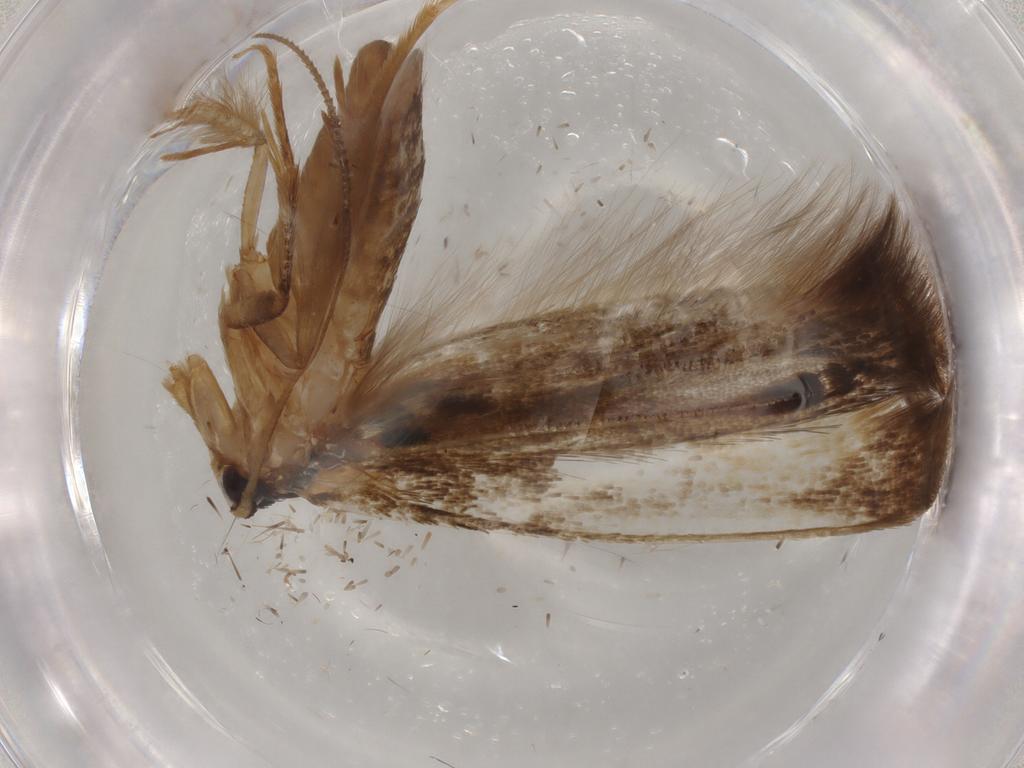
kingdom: Animalia
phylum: Arthropoda
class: Insecta
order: Lepidoptera
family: Tineidae
